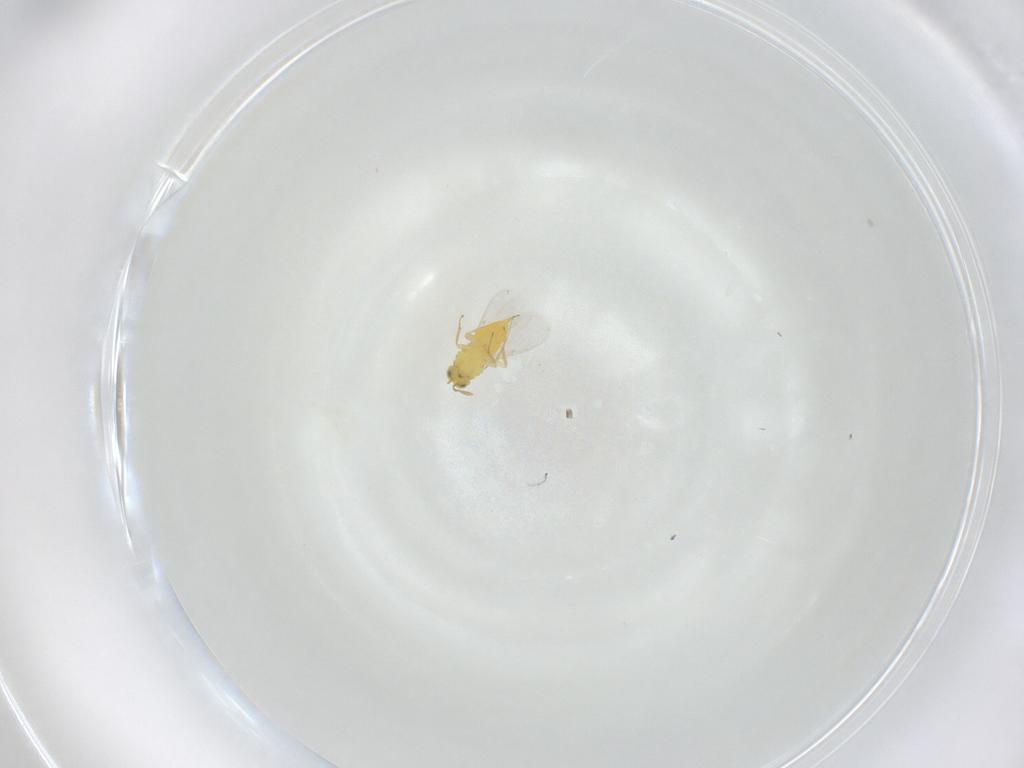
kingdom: Animalia
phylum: Arthropoda
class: Insecta
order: Hymenoptera
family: Aphelinidae
